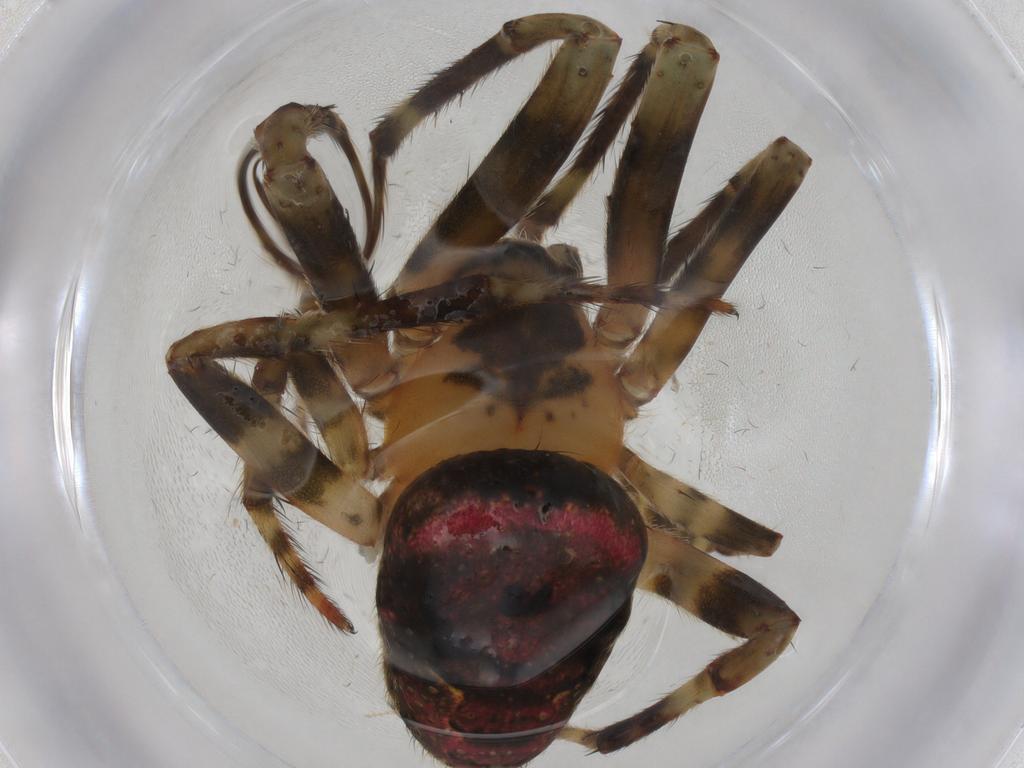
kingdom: Animalia
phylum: Arthropoda
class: Arachnida
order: Araneae
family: Araneidae
